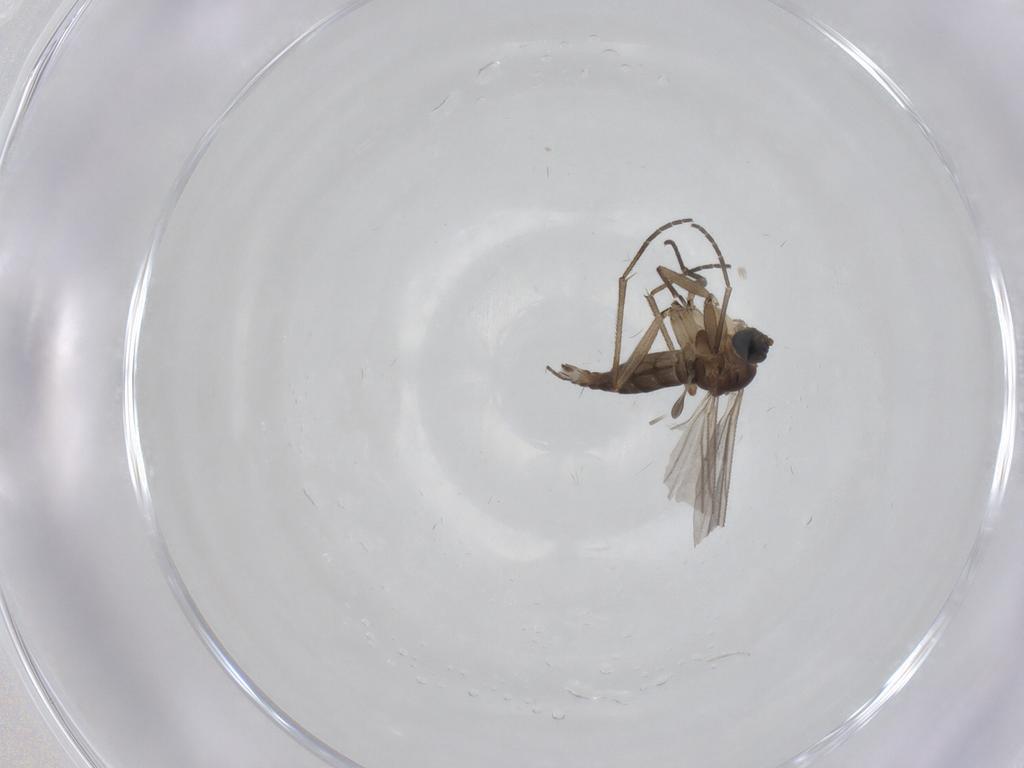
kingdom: Animalia
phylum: Arthropoda
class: Insecta
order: Diptera
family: Sciaridae
